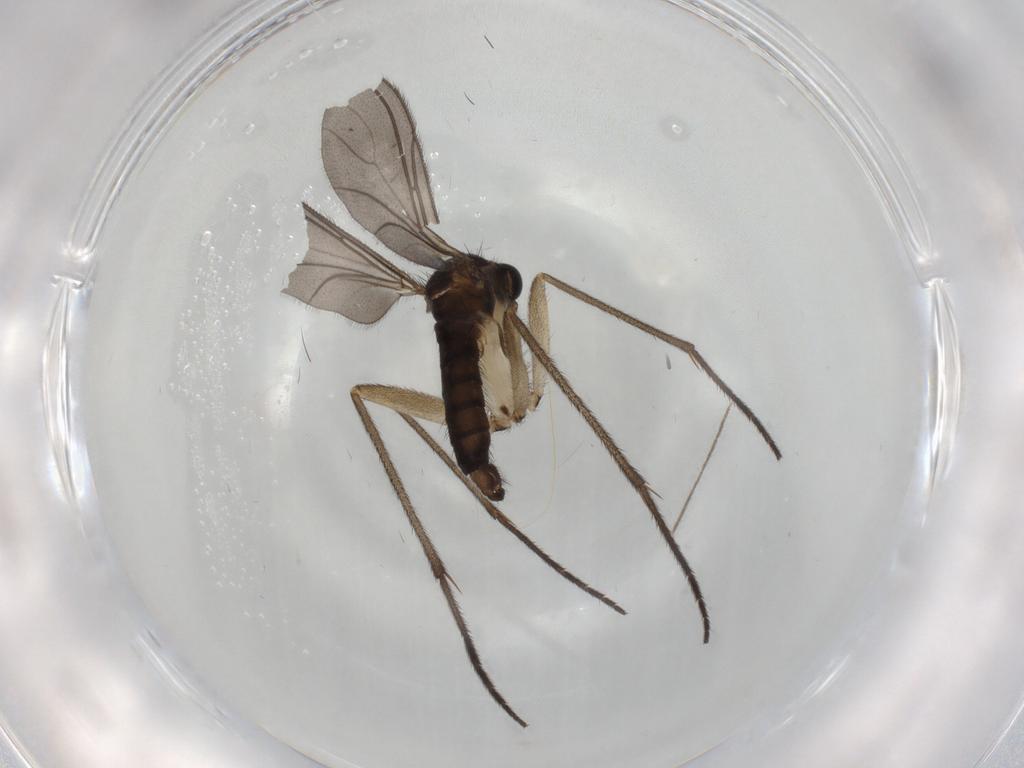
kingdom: Animalia
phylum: Arthropoda
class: Insecta
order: Diptera
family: Sciaridae
